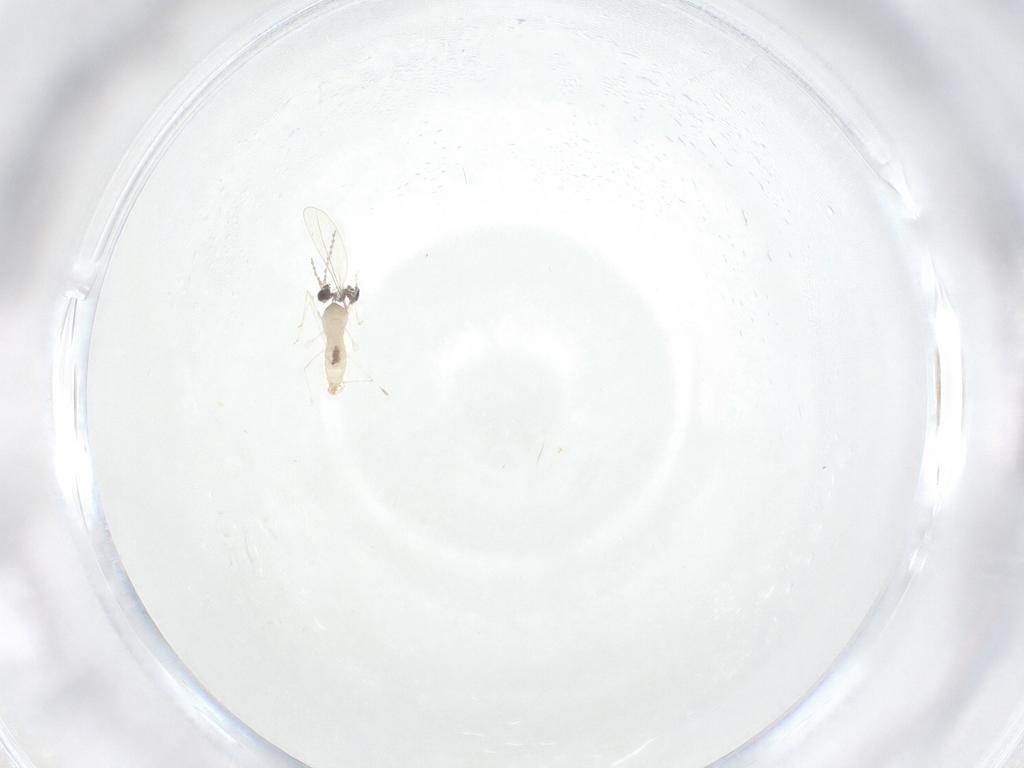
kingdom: Animalia
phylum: Arthropoda
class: Insecta
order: Diptera
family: Cecidomyiidae
